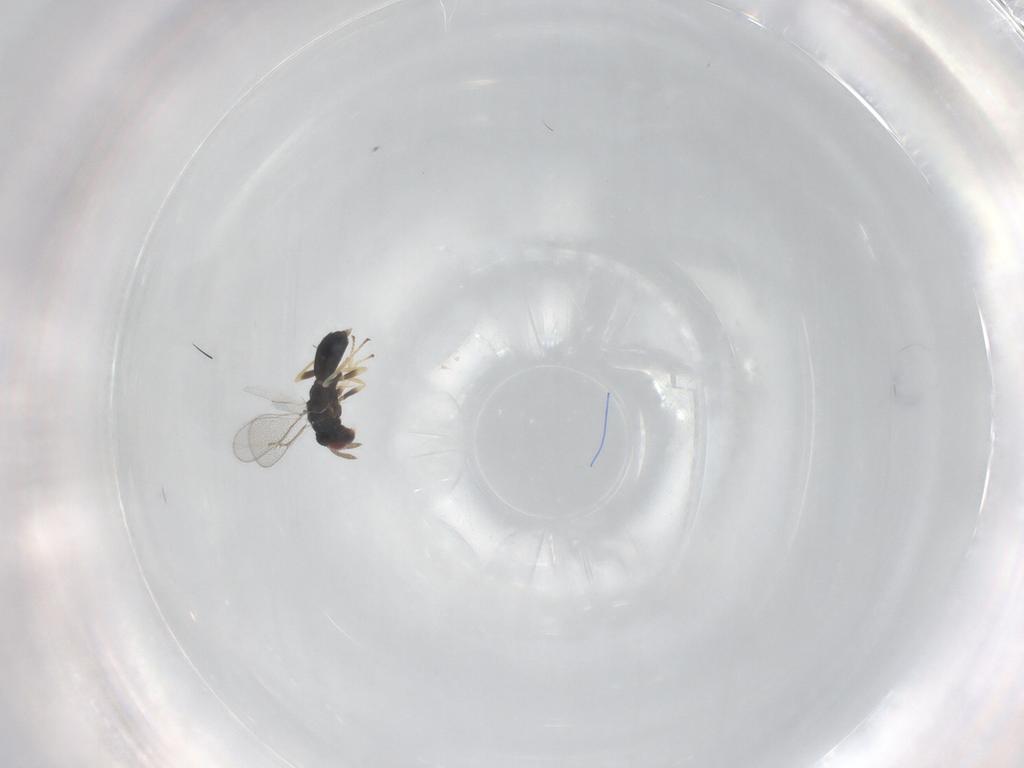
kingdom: Animalia
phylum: Arthropoda
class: Insecta
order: Hymenoptera
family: Eulophidae
